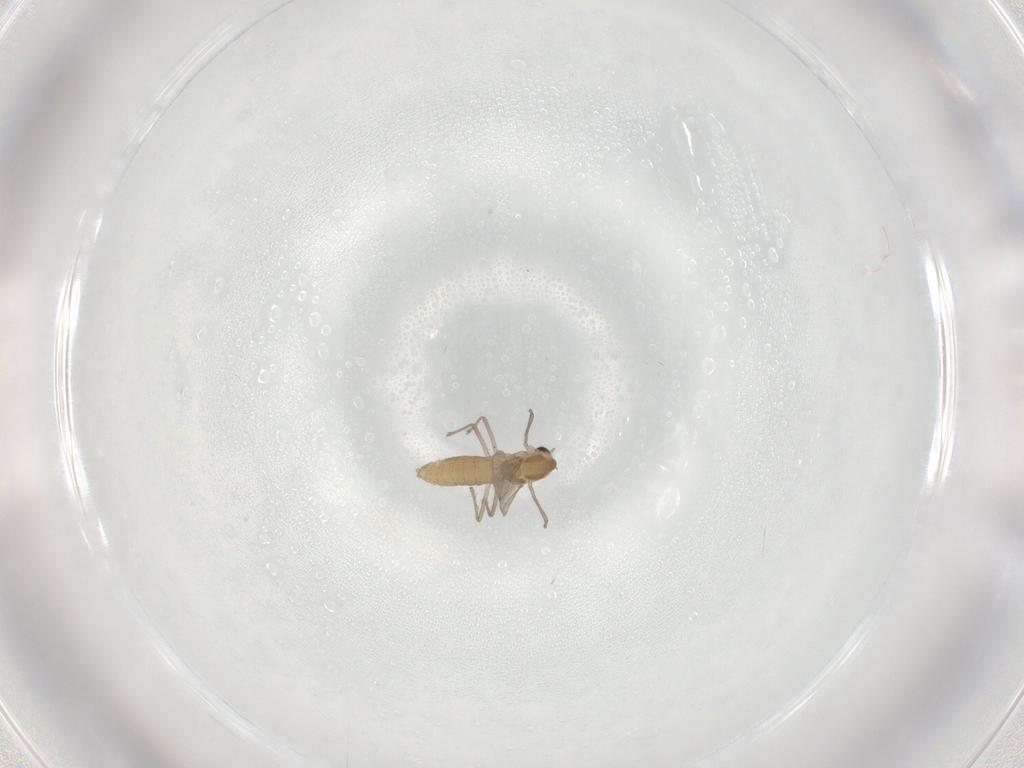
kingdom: Animalia
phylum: Arthropoda
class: Insecta
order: Diptera
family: Chironomidae
